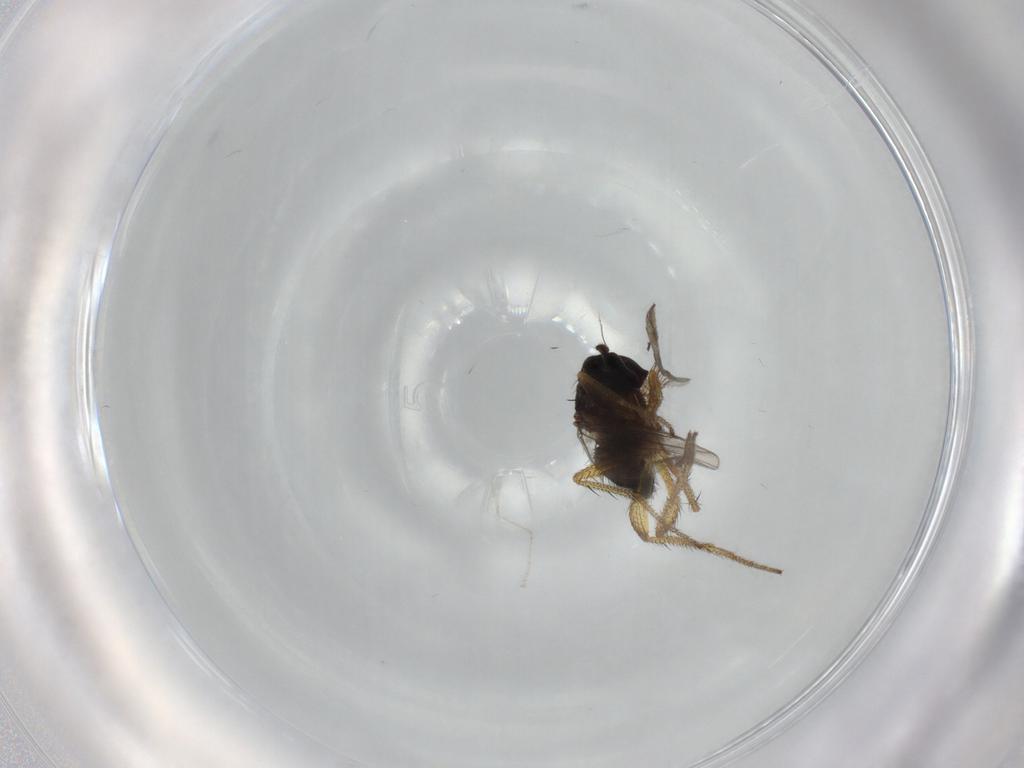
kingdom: Animalia
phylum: Arthropoda
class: Insecta
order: Diptera
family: Dolichopodidae
